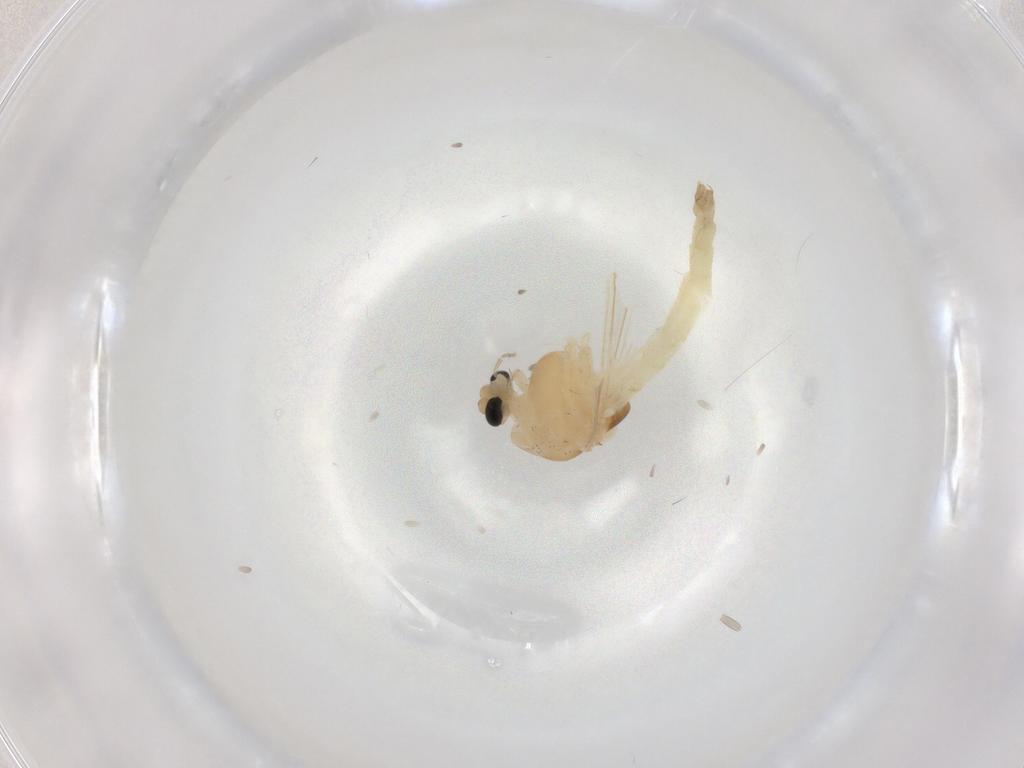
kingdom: Animalia
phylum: Arthropoda
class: Insecta
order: Diptera
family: Chironomidae
